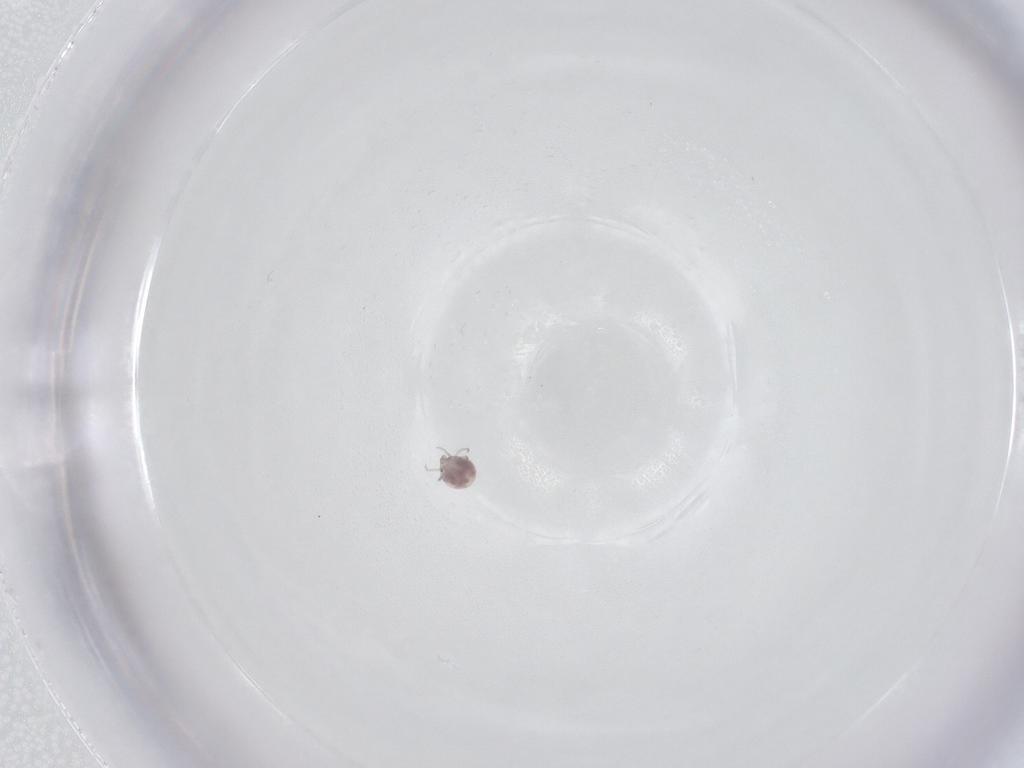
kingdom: Animalia
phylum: Arthropoda
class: Arachnida
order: Trombidiformes
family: Pionidae
